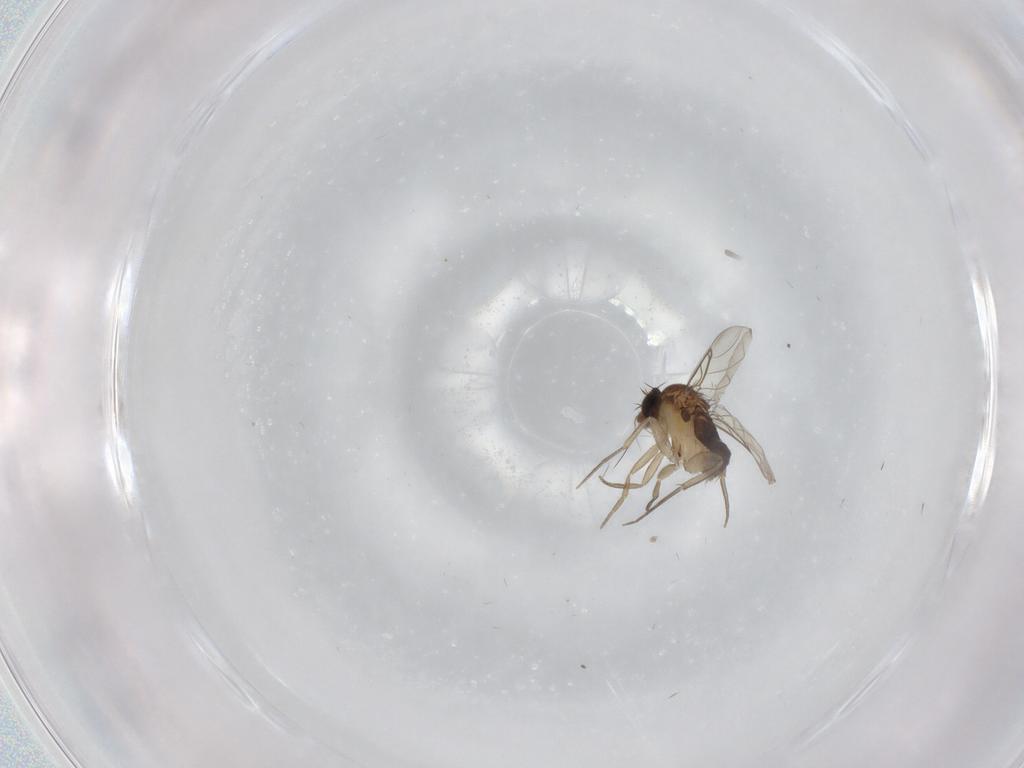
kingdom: Animalia
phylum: Arthropoda
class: Insecta
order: Diptera
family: Phoridae
